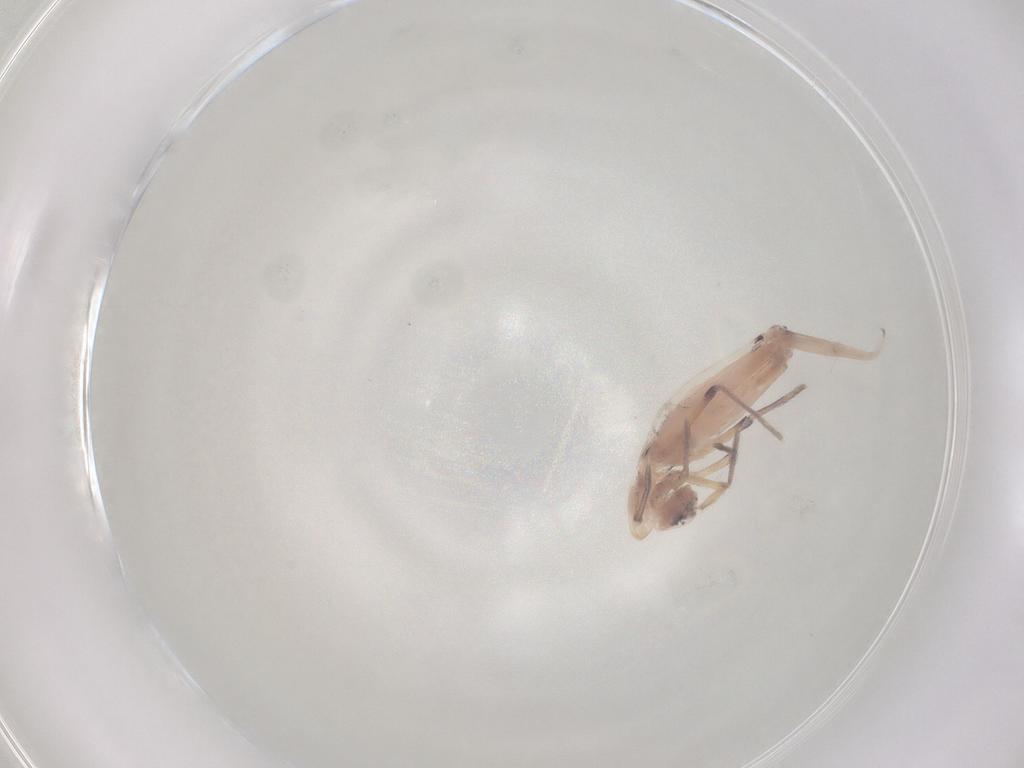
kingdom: Animalia
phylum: Arthropoda
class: Collembola
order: Entomobryomorpha
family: Entomobryidae
